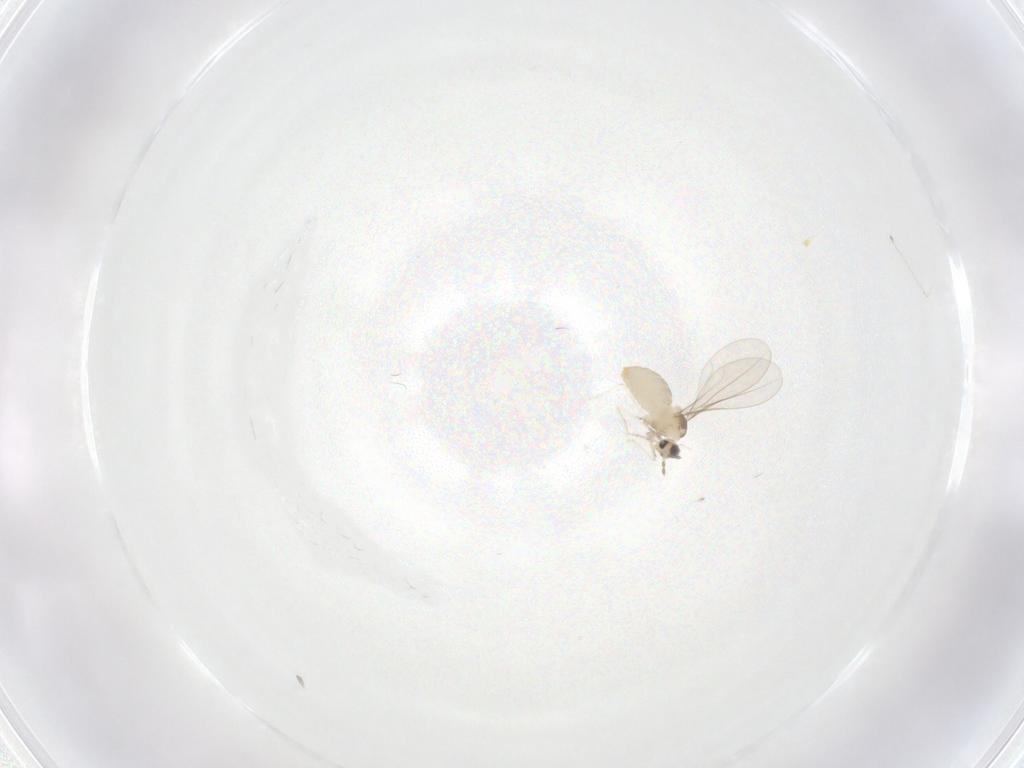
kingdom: Animalia
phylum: Arthropoda
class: Insecta
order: Diptera
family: Cecidomyiidae
